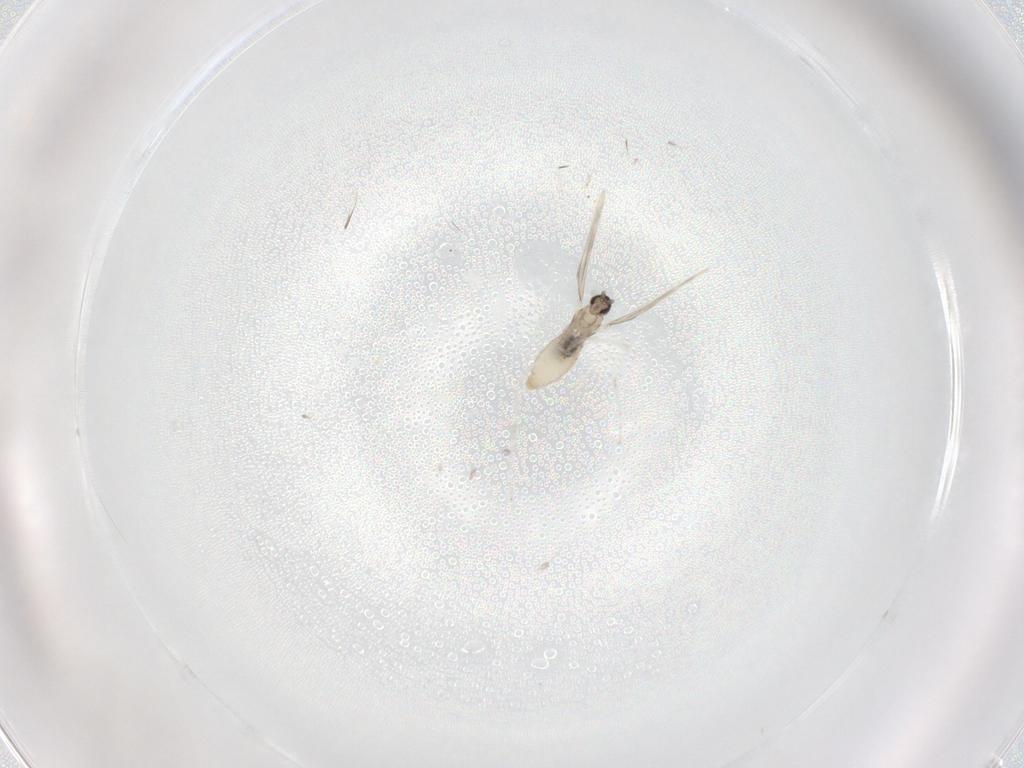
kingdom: Animalia
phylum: Arthropoda
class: Insecta
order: Diptera
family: Cecidomyiidae
